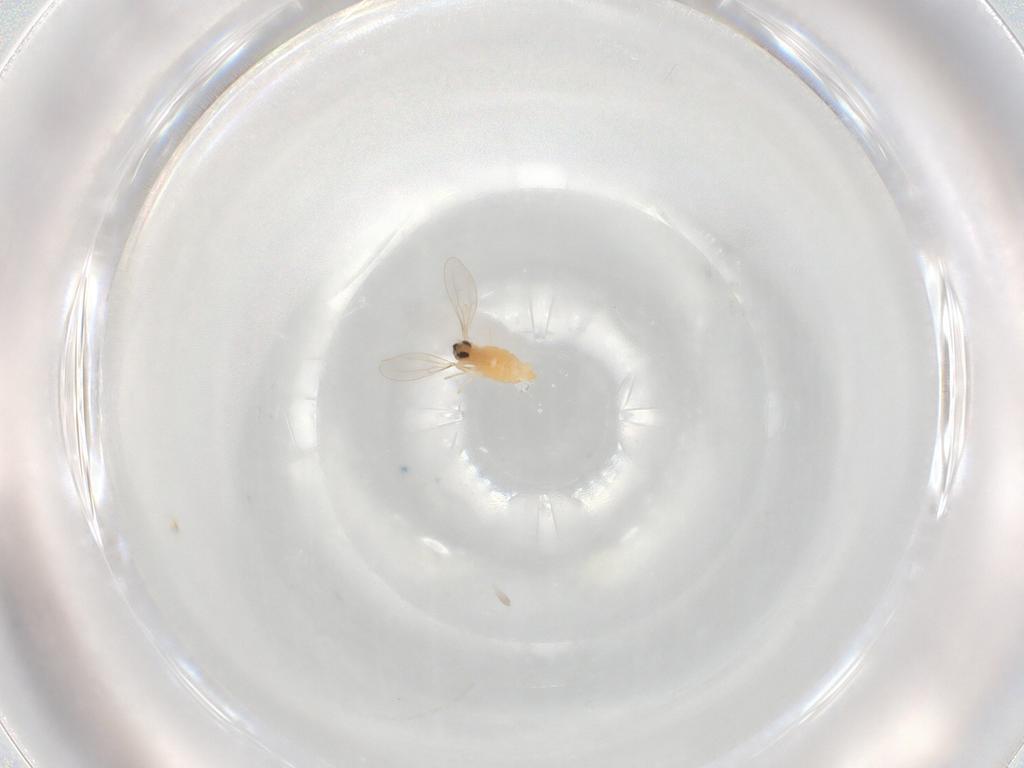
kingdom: Animalia
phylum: Arthropoda
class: Insecta
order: Diptera
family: Cecidomyiidae
